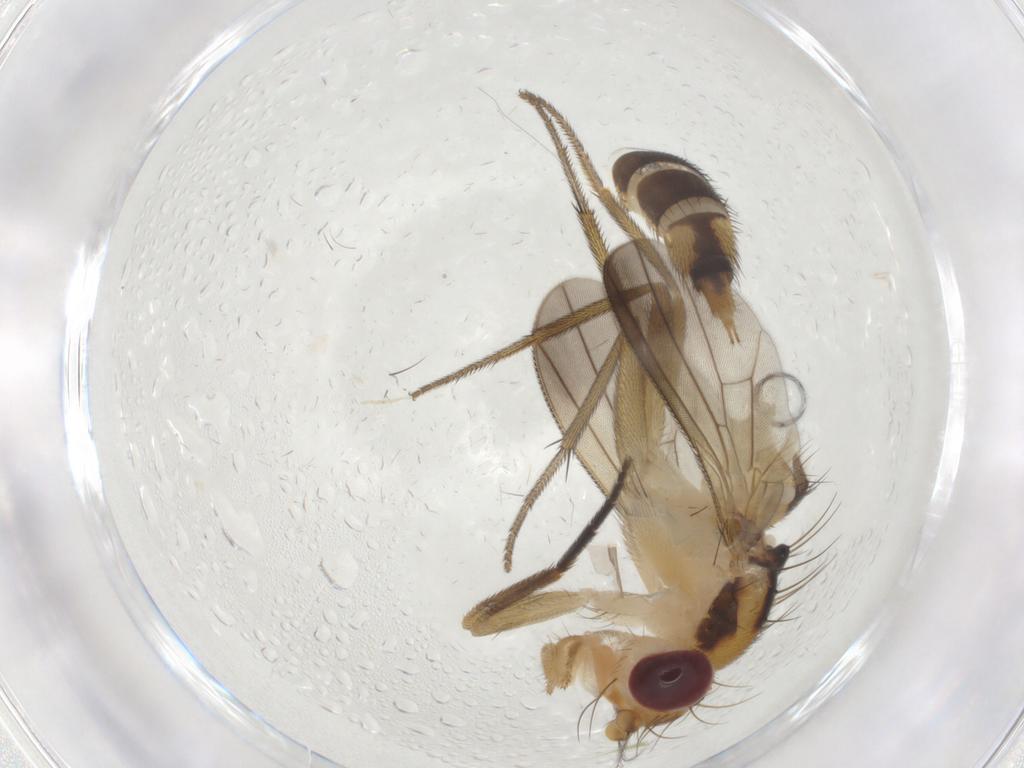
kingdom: Animalia
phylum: Arthropoda
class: Insecta
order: Diptera
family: Clusiidae
